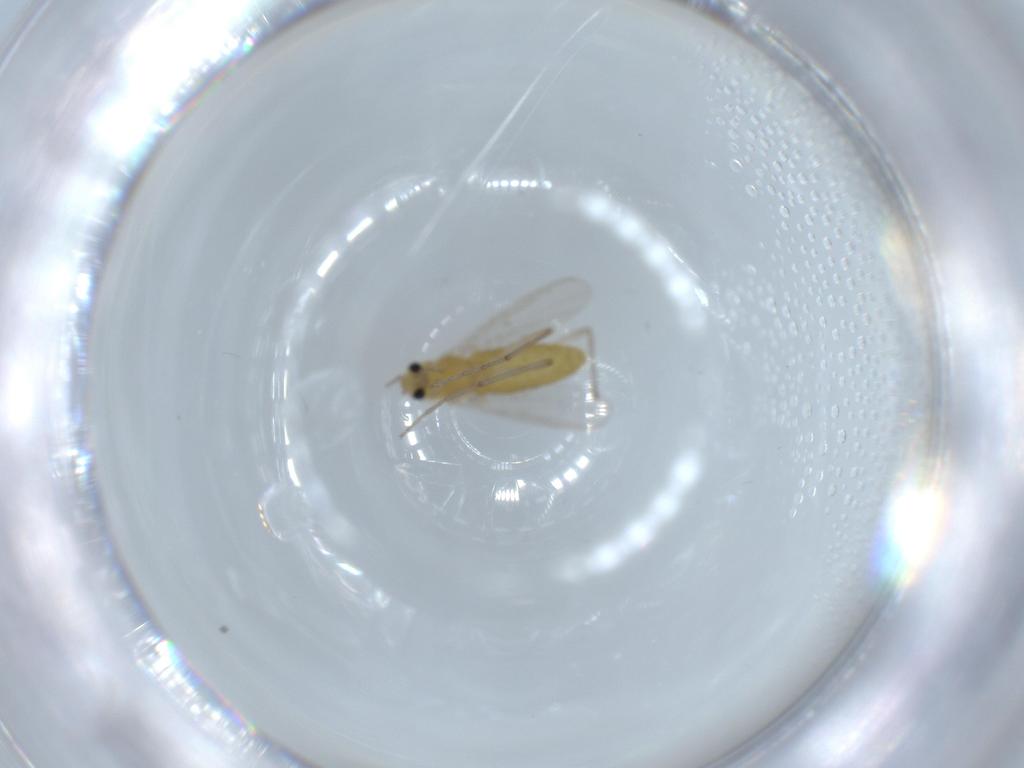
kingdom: Animalia
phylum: Arthropoda
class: Insecta
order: Diptera
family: Chironomidae
